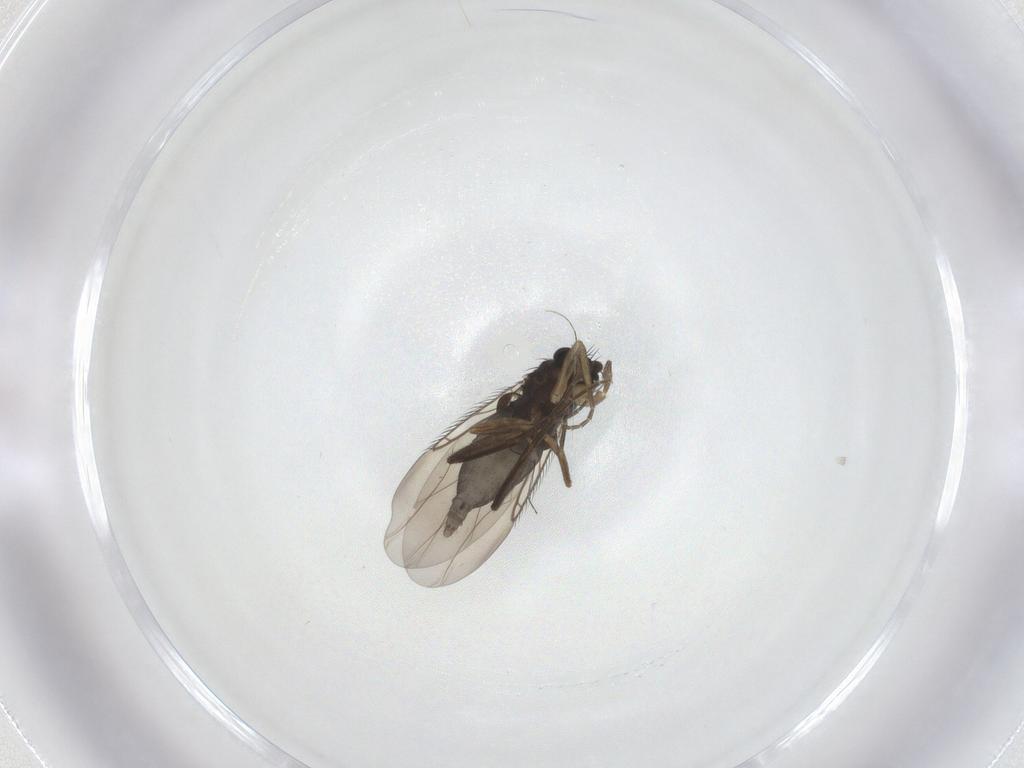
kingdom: Animalia
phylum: Arthropoda
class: Insecta
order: Diptera
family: Phoridae
